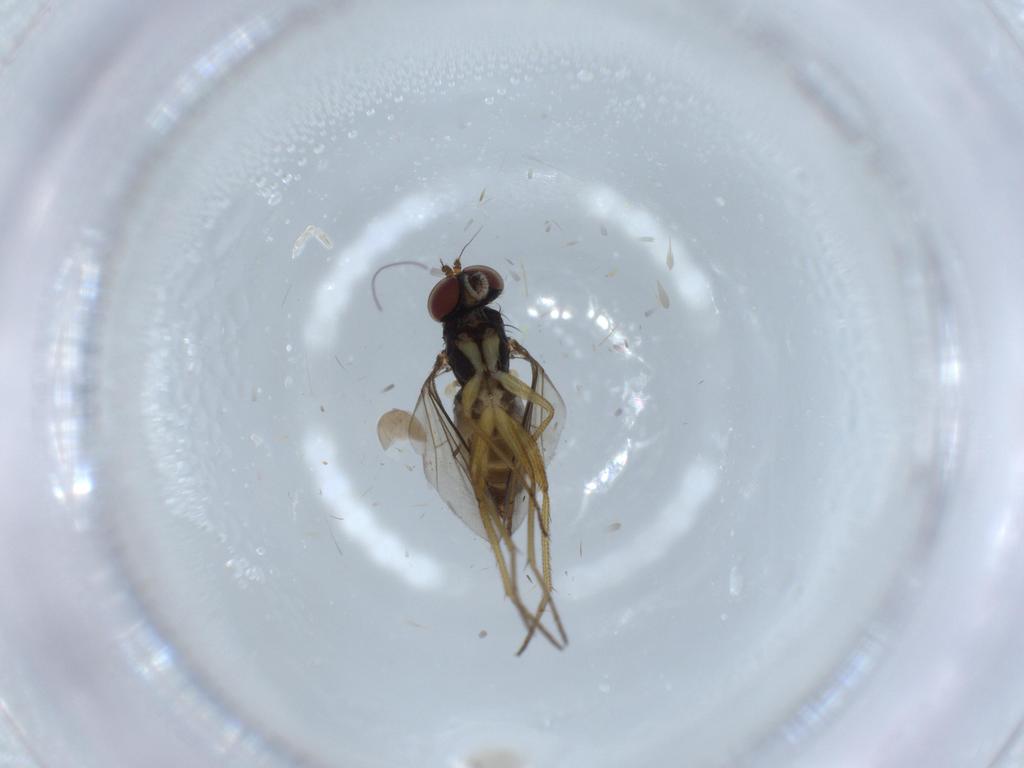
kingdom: Animalia
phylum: Arthropoda
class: Insecta
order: Diptera
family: Dolichopodidae
